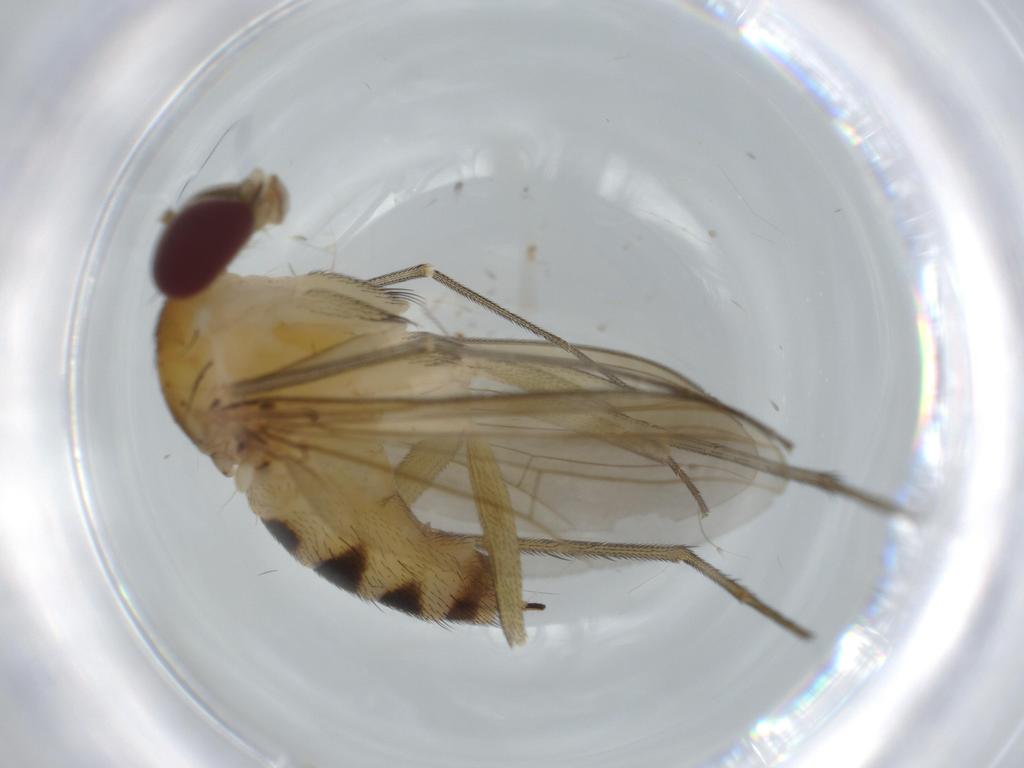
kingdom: Animalia
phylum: Arthropoda
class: Insecta
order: Diptera
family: Dolichopodidae
